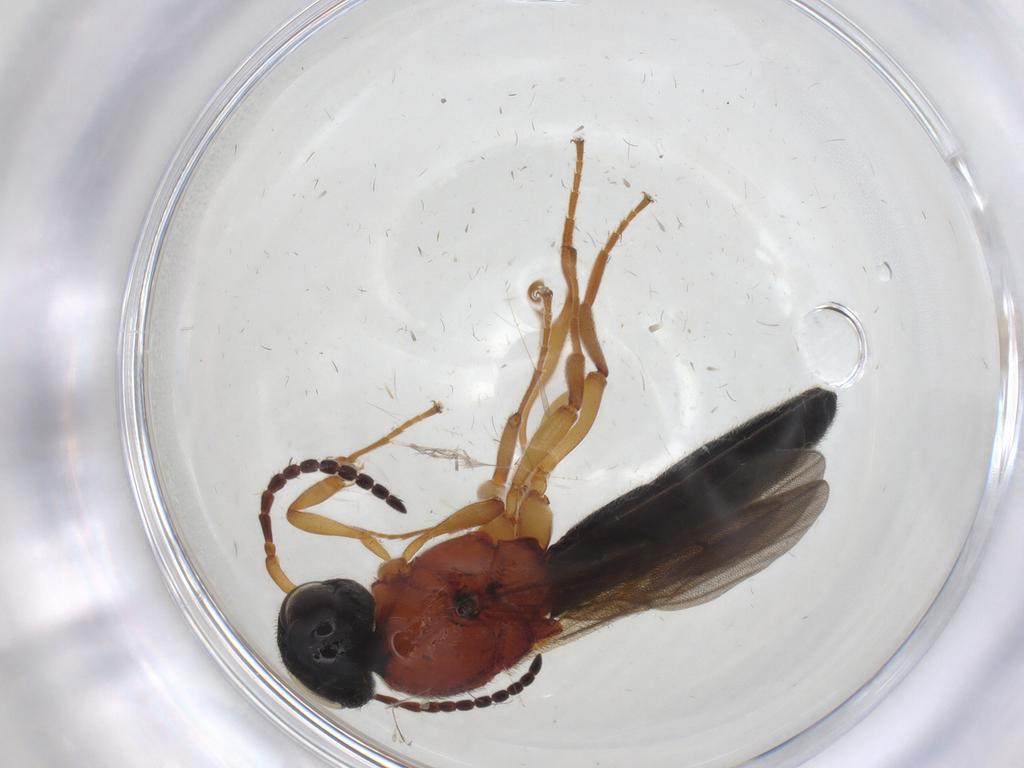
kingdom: Animalia
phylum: Arthropoda
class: Insecta
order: Hymenoptera
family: Scelionidae
